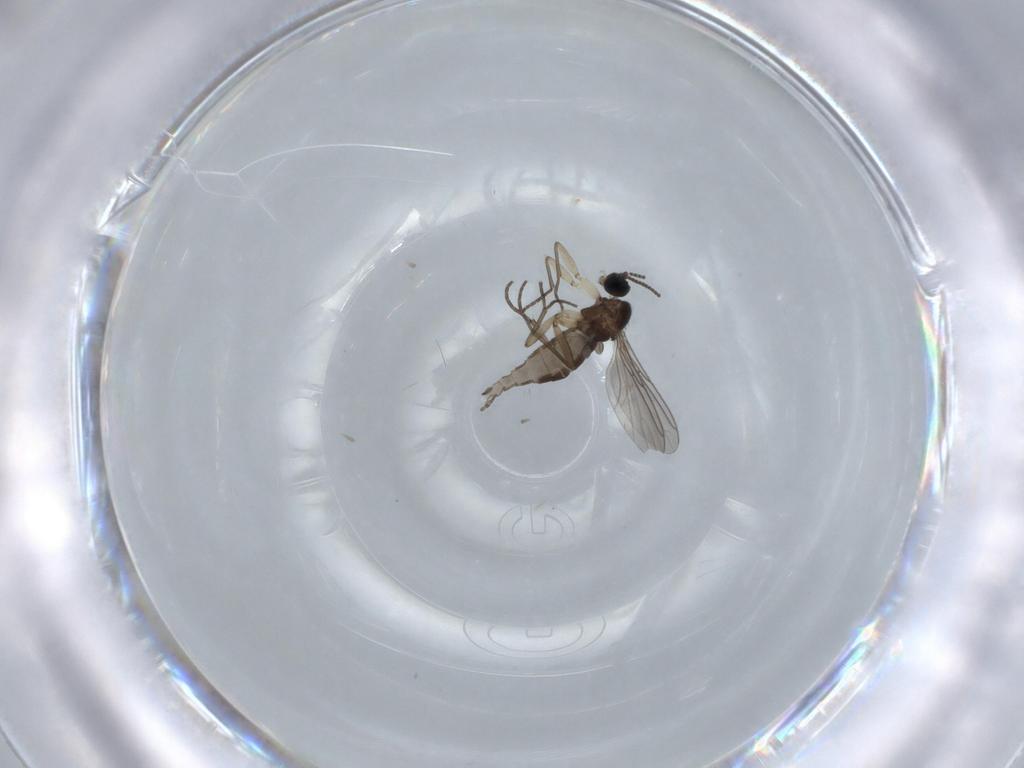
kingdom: Animalia
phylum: Arthropoda
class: Insecta
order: Diptera
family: Sciaridae
